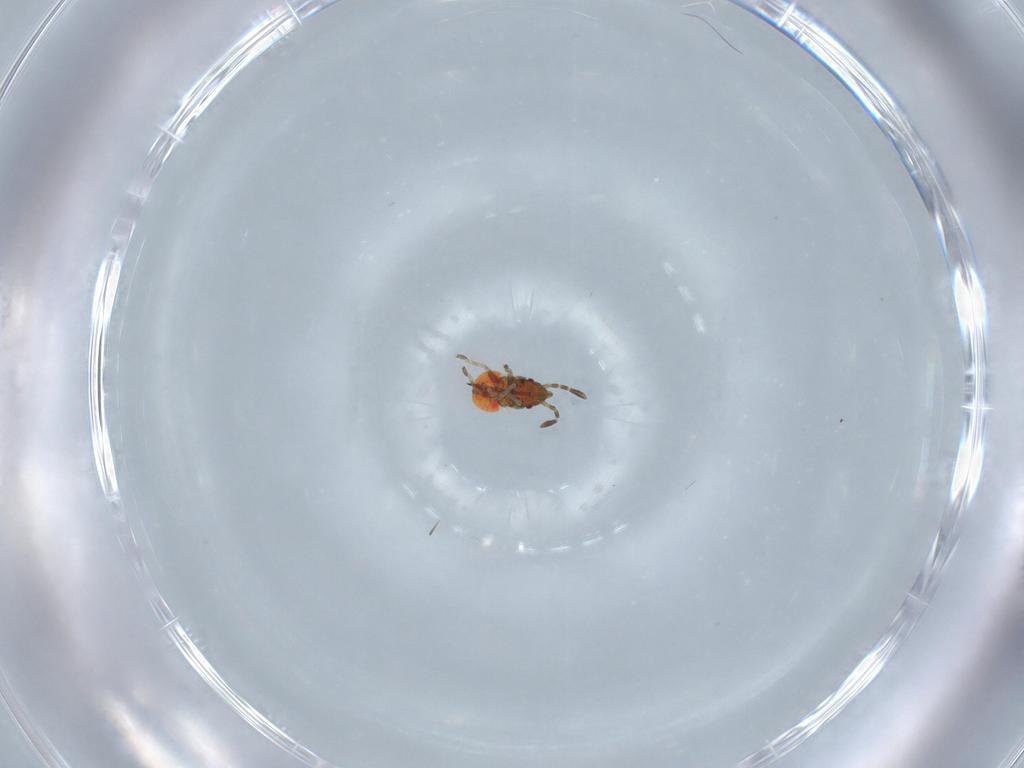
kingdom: Animalia
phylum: Arthropoda
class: Insecta
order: Hemiptera
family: Rhyparochromidae
